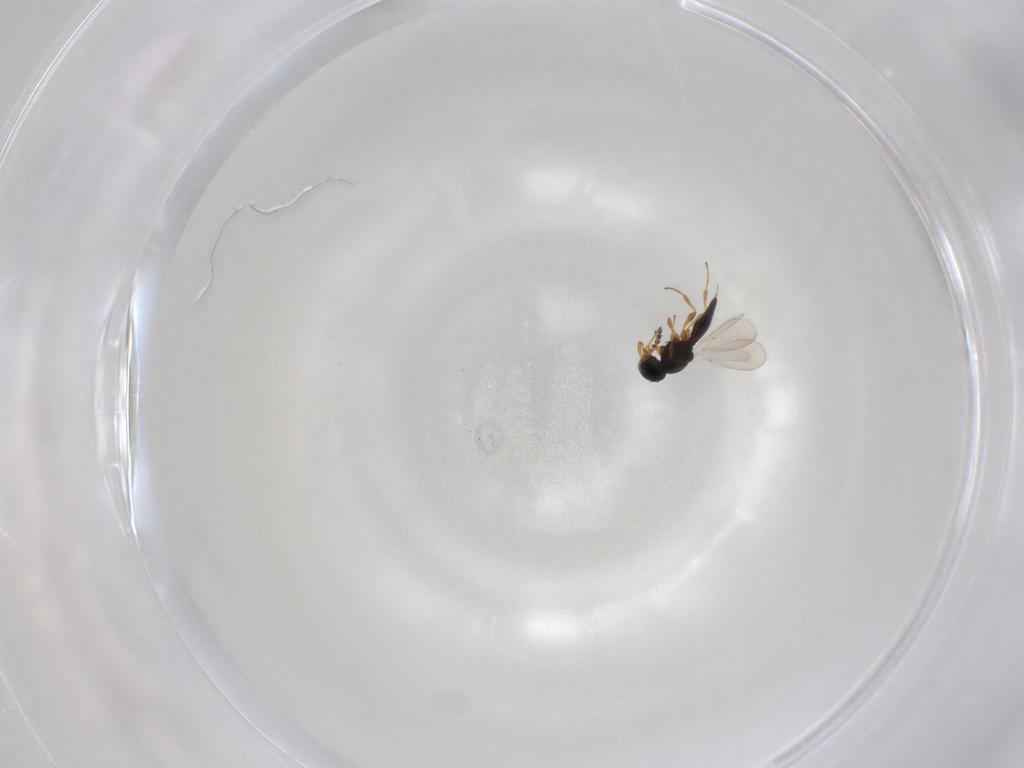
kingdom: Animalia
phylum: Arthropoda
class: Insecta
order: Hymenoptera
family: Platygastridae
